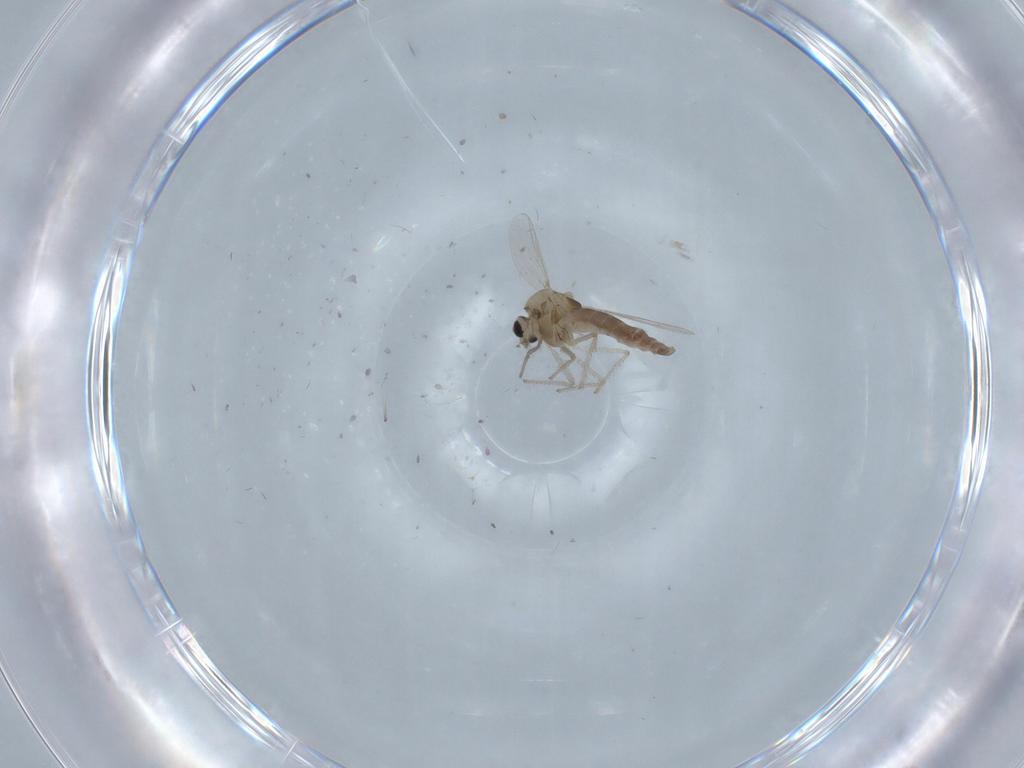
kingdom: Animalia
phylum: Arthropoda
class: Insecta
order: Diptera
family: Chironomidae
